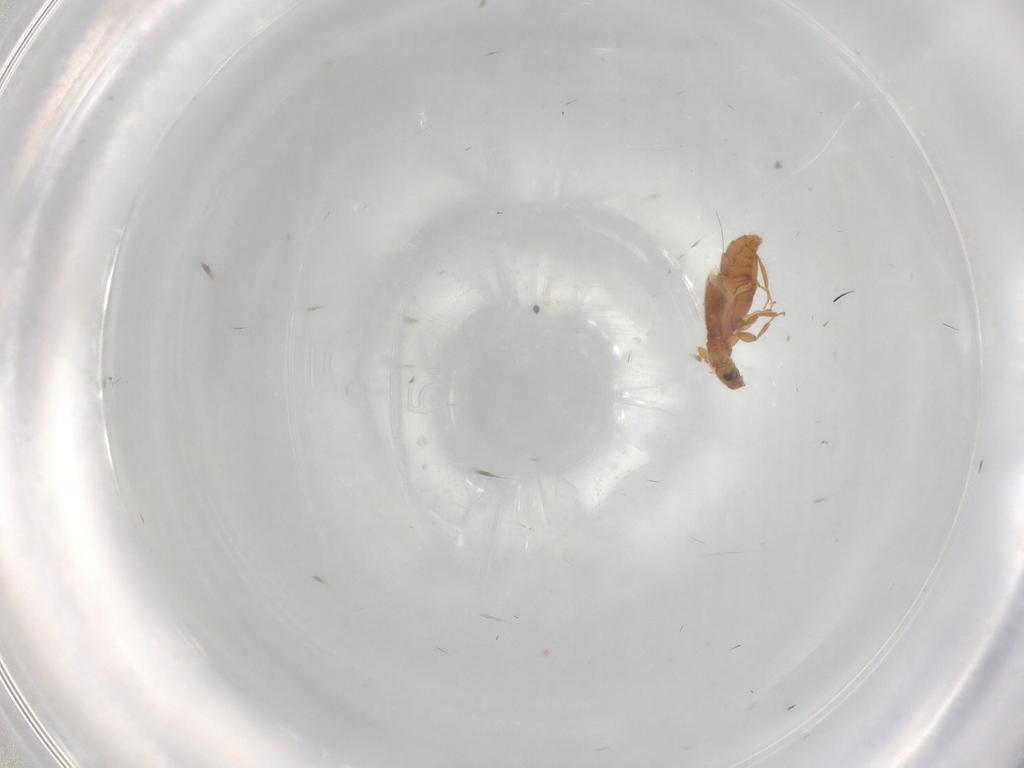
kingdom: Animalia
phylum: Arthropoda
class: Insecta
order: Coleoptera
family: Staphylinidae
